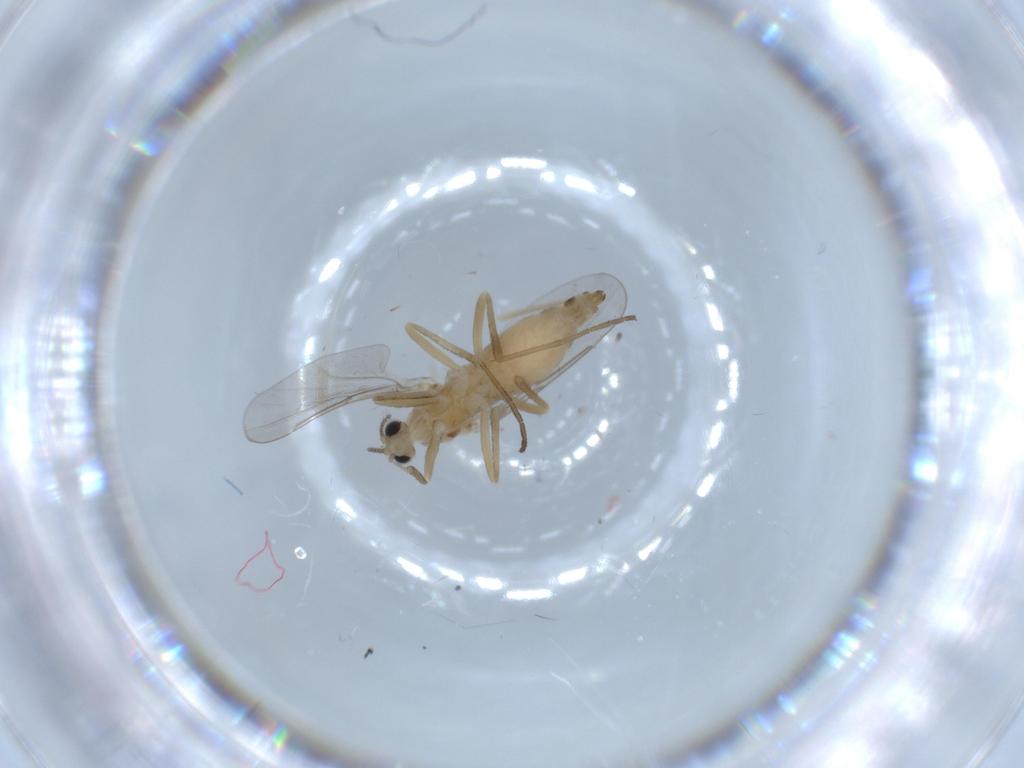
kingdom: Animalia
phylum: Arthropoda
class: Insecta
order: Diptera
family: Cecidomyiidae
